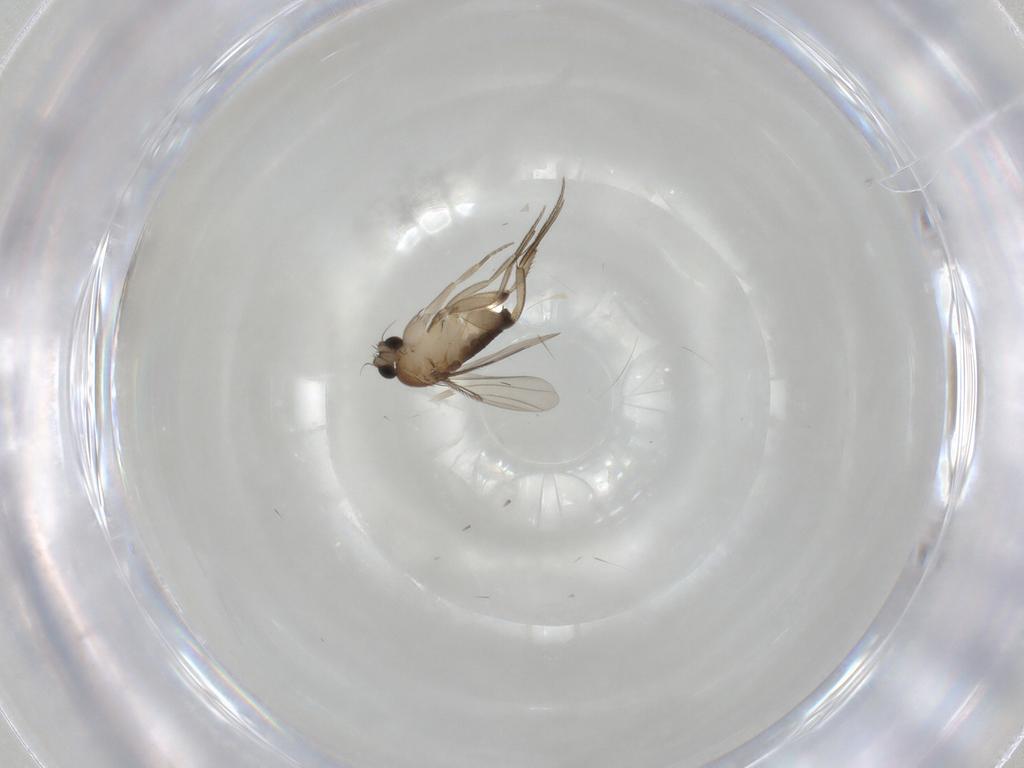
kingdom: Animalia
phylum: Arthropoda
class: Insecta
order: Diptera
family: Phoridae
